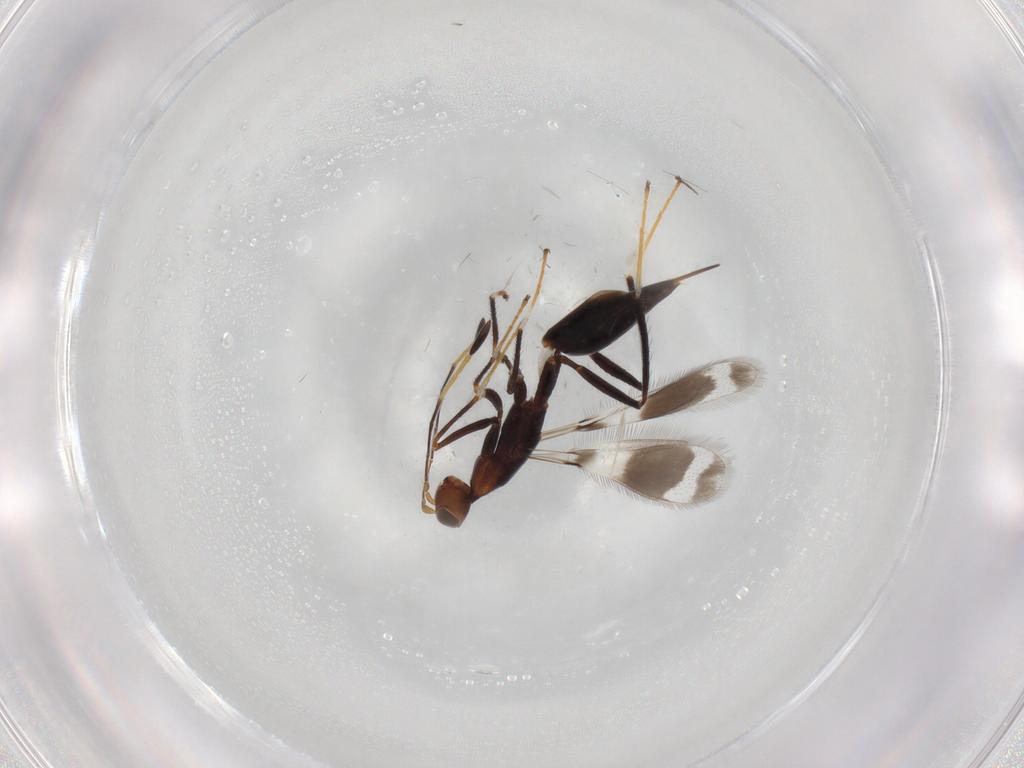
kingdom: Animalia
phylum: Arthropoda
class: Insecta
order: Hymenoptera
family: Mymaridae
